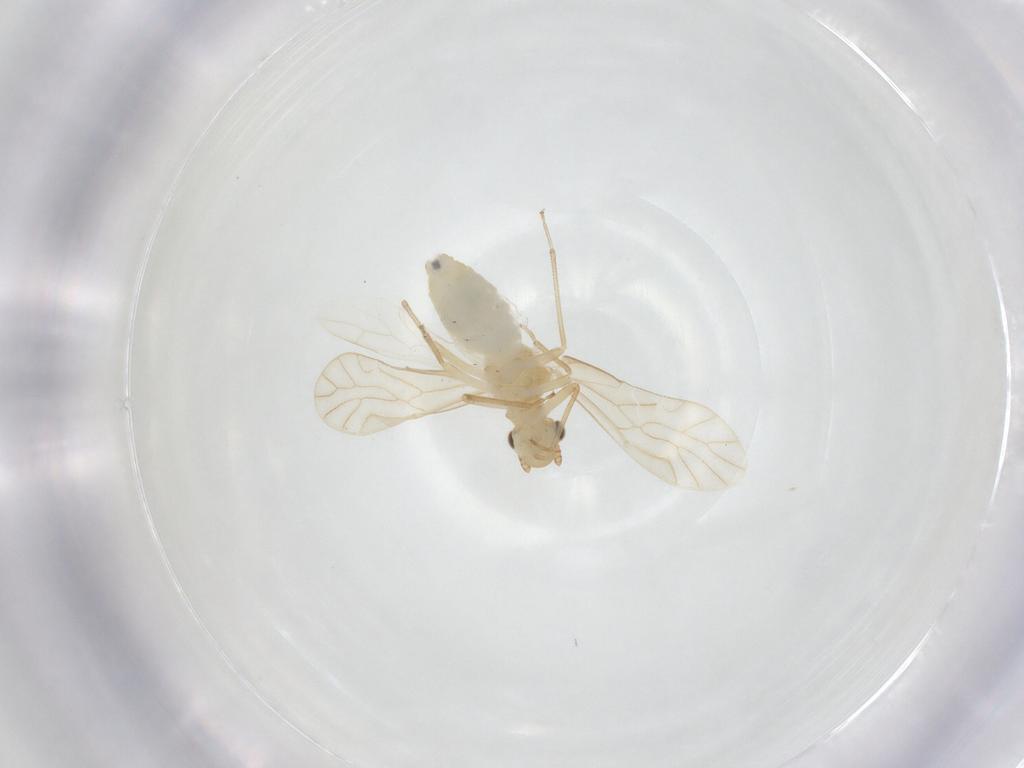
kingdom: Animalia
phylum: Arthropoda
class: Insecta
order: Psocodea
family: Caeciliusidae
